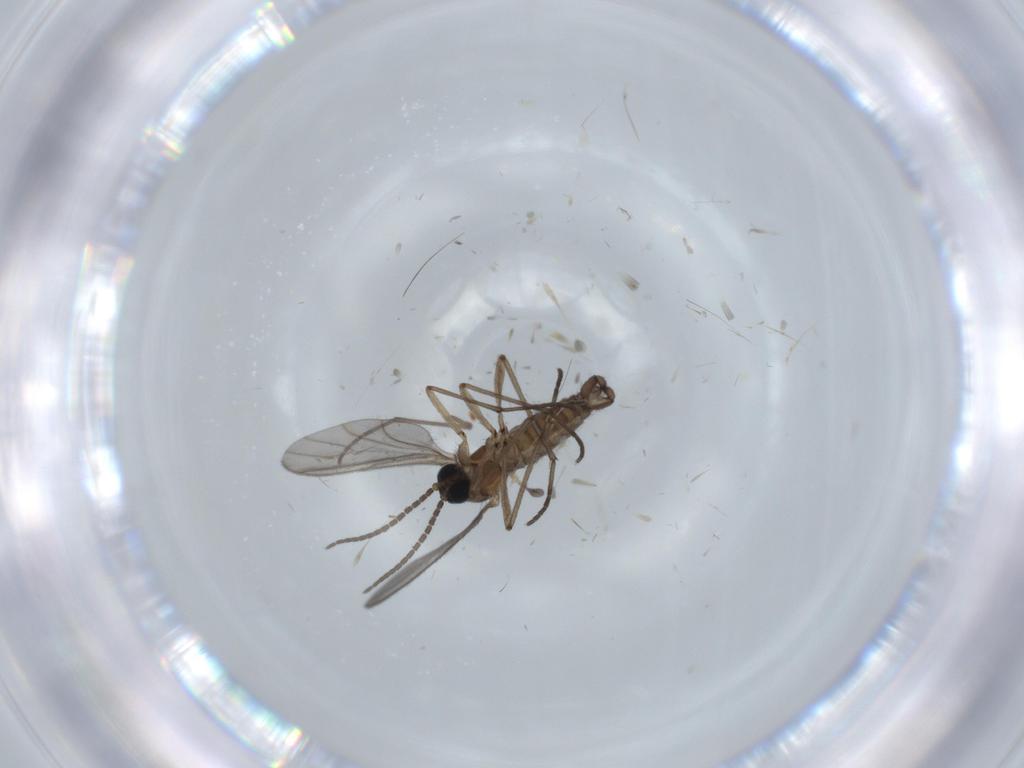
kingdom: Animalia
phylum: Arthropoda
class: Insecta
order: Diptera
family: Sciaridae
